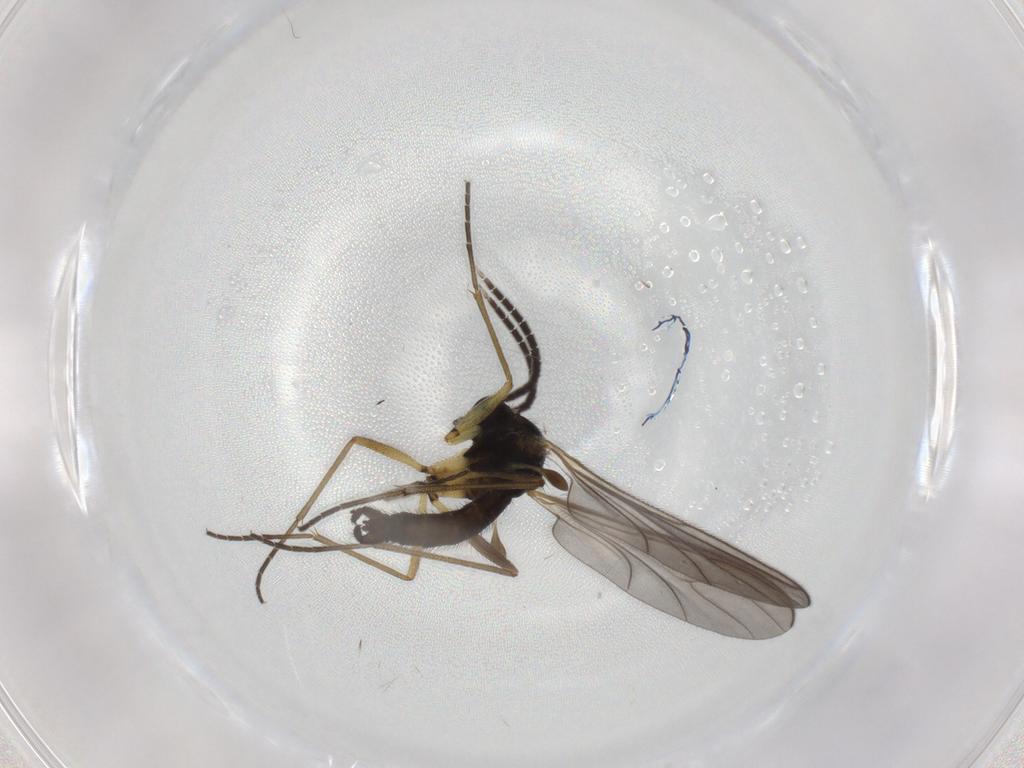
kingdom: Animalia
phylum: Arthropoda
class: Insecta
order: Diptera
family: Sciaridae
